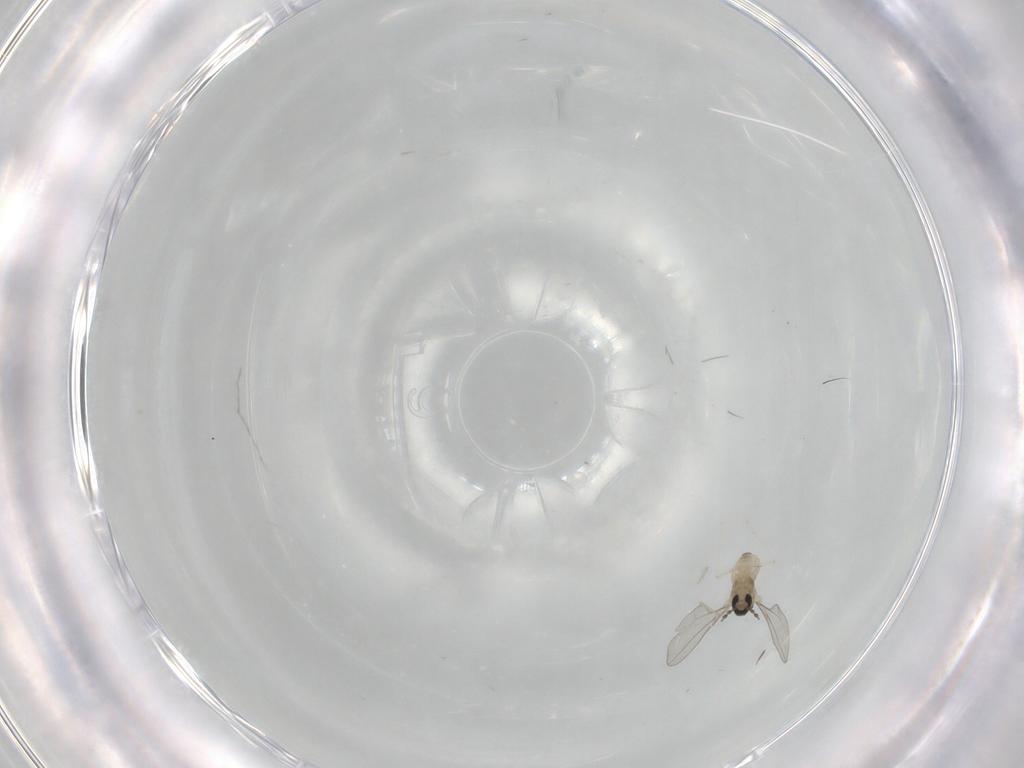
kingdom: Animalia
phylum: Arthropoda
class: Insecta
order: Diptera
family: Cecidomyiidae
